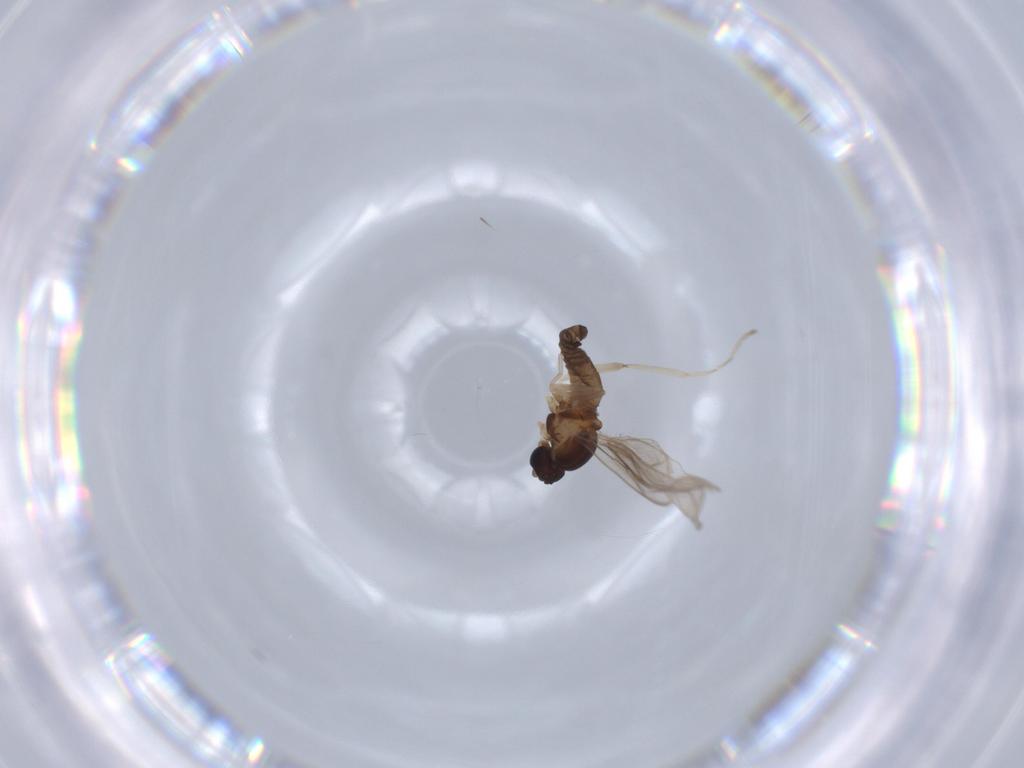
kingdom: Animalia
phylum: Arthropoda
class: Insecta
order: Diptera
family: Cecidomyiidae
